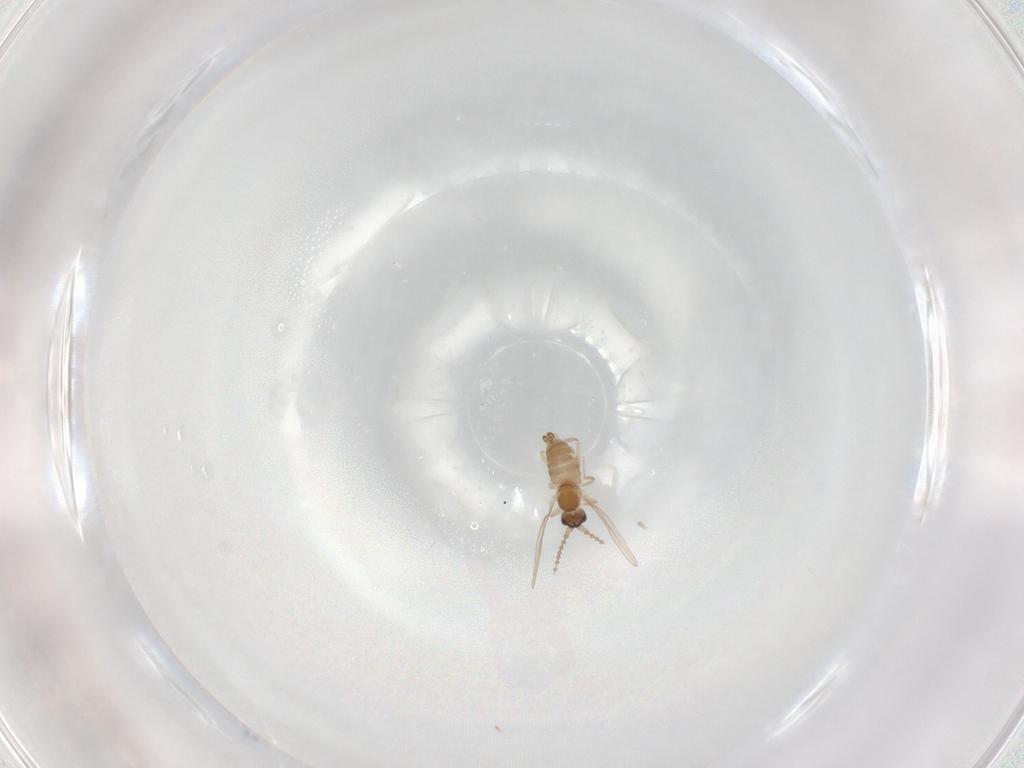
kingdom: Animalia
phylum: Arthropoda
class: Insecta
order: Diptera
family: Cecidomyiidae
